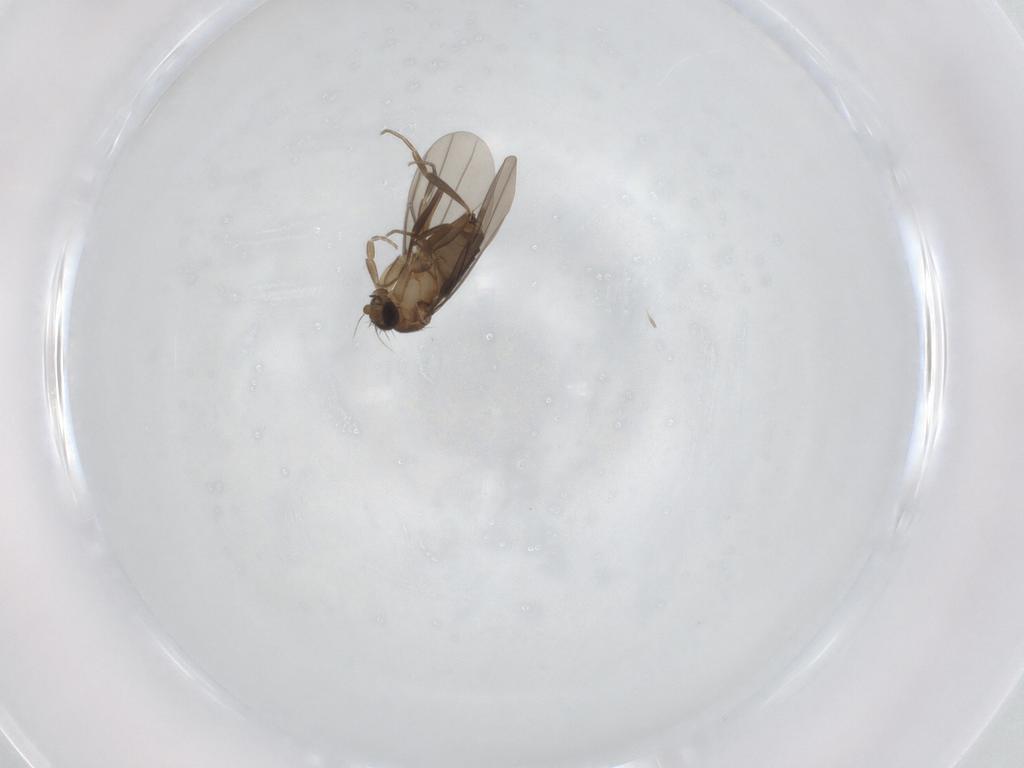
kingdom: Animalia
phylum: Arthropoda
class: Insecta
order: Diptera
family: Phoridae
